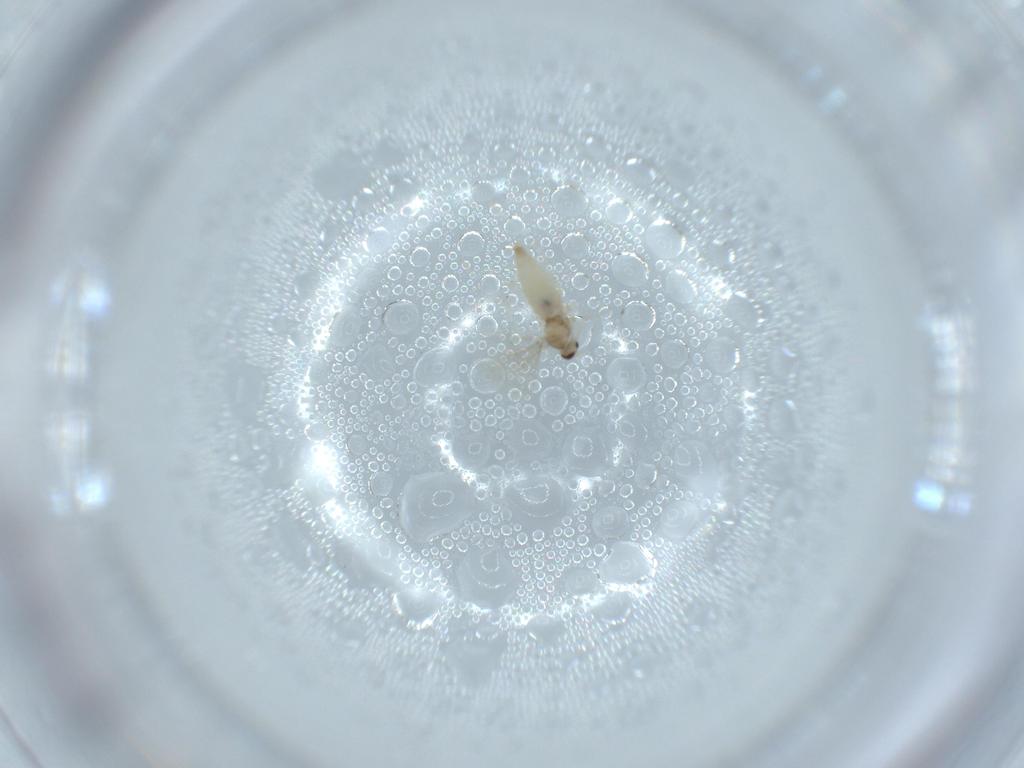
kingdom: Animalia
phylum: Arthropoda
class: Insecta
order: Diptera
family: Cecidomyiidae
